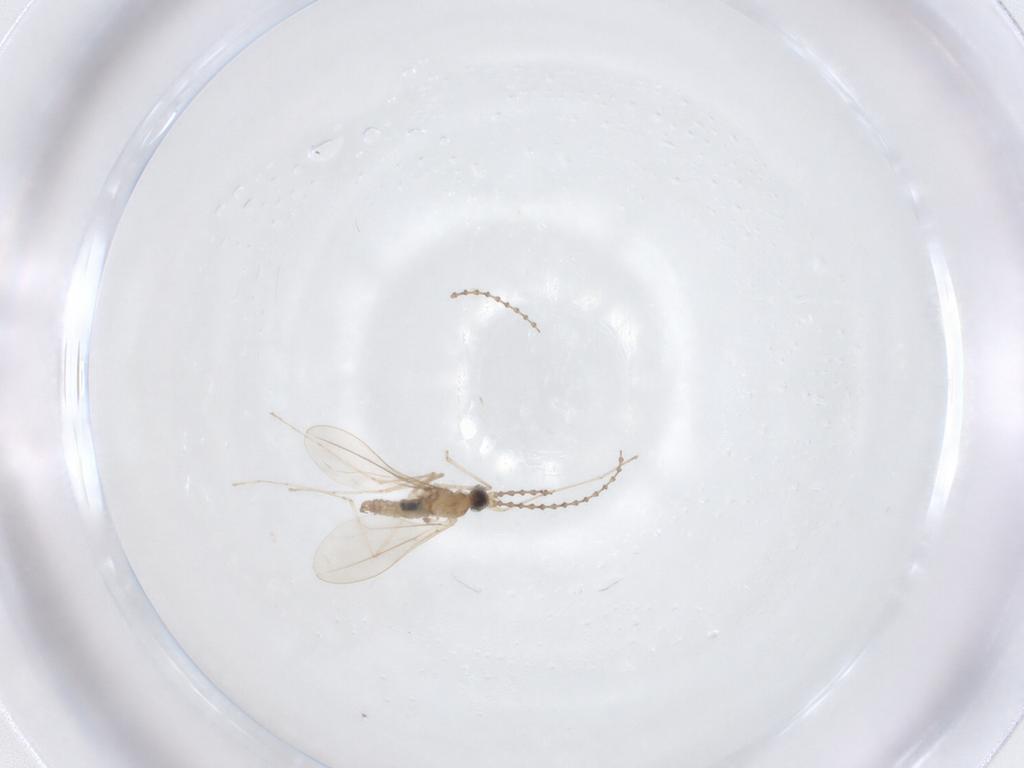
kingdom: Animalia
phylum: Arthropoda
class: Insecta
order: Diptera
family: Cecidomyiidae
